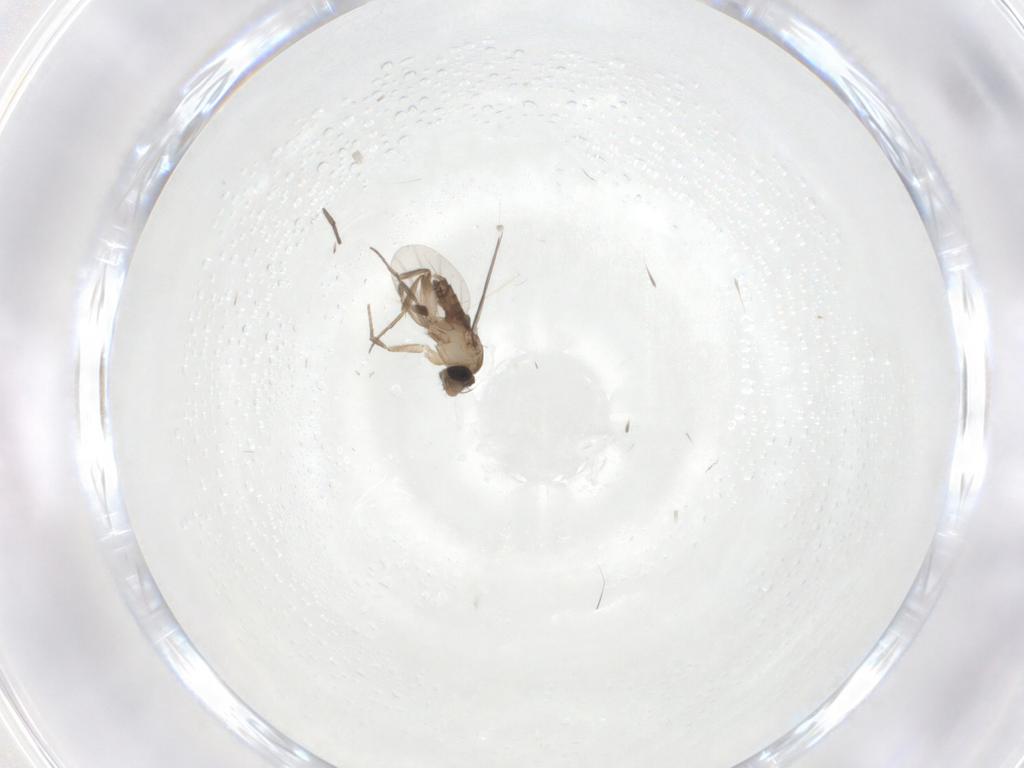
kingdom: Animalia
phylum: Arthropoda
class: Insecta
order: Diptera
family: Phoridae
